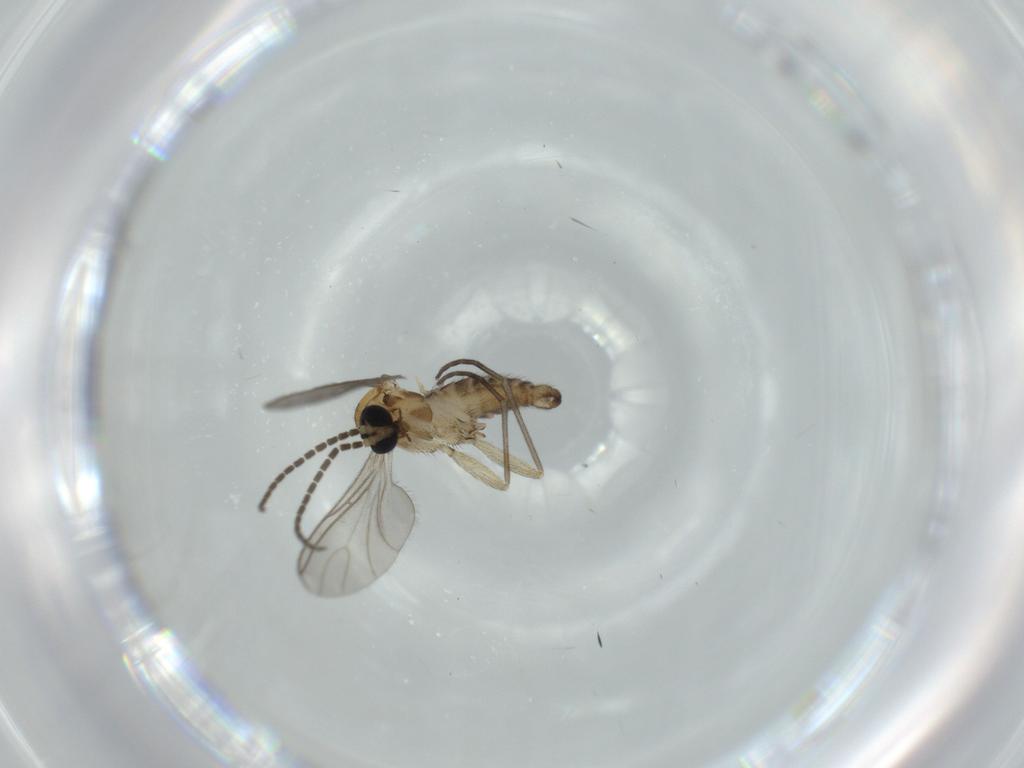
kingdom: Animalia
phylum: Arthropoda
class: Insecta
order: Diptera
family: Sciaridae
